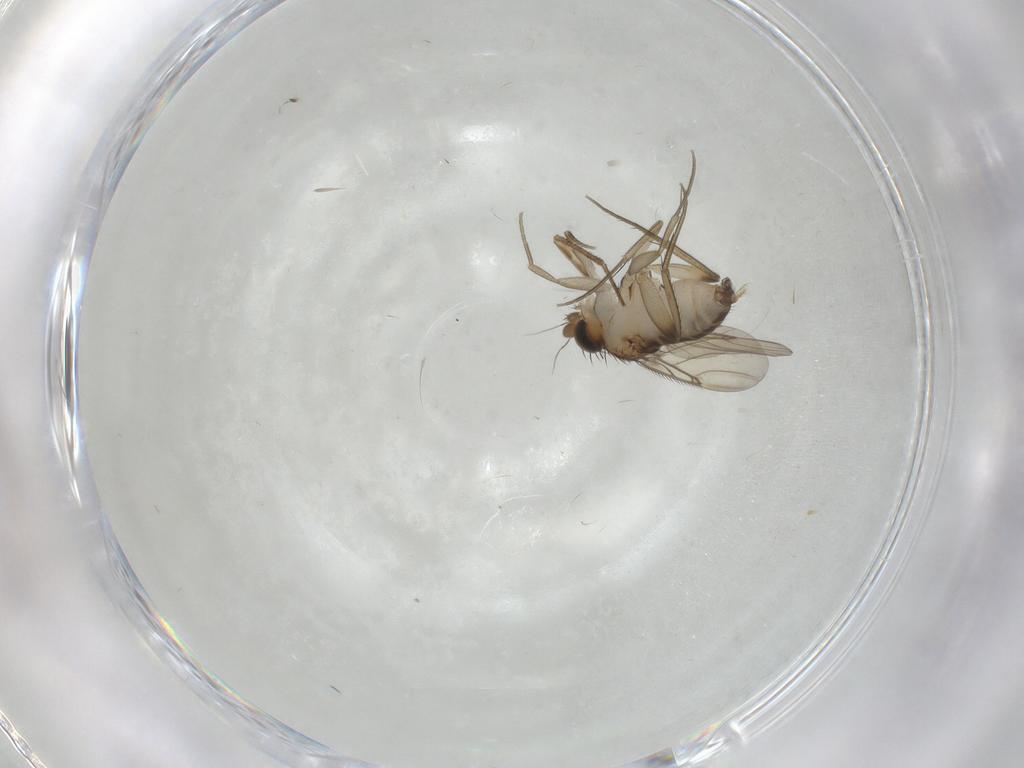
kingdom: Animalia
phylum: Arthropoda
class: Insecta
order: Diptera
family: Phoridae
